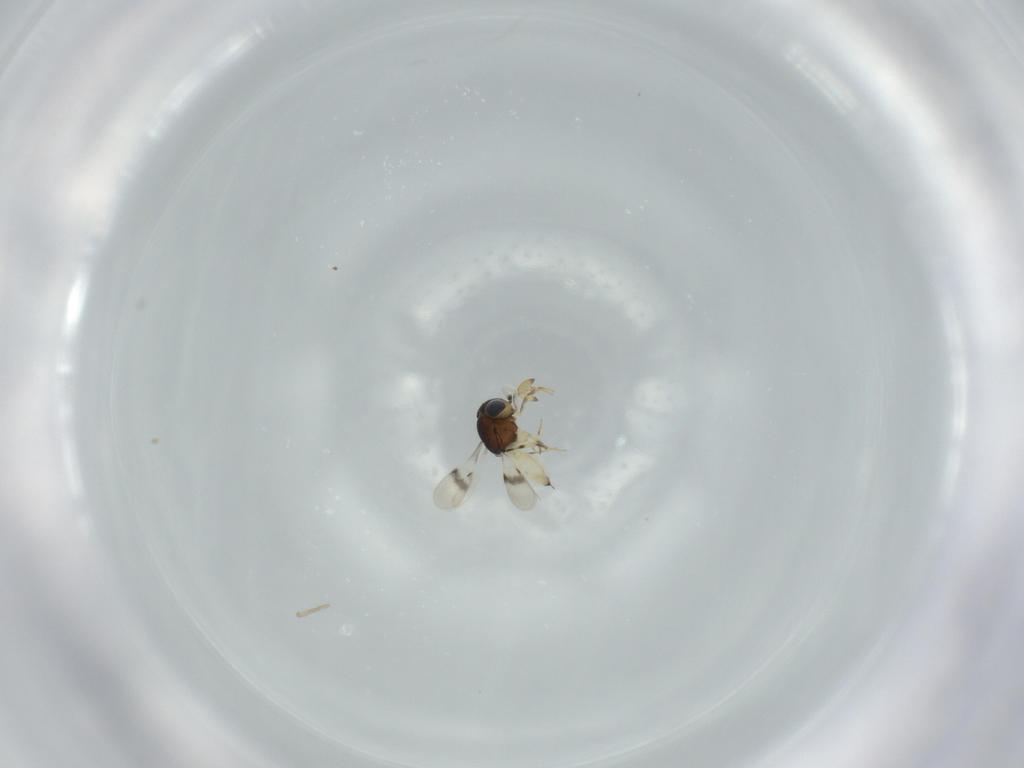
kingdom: Animalia
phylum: Arthropoda
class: Insecta
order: Hymenoptera
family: Scelionidae
